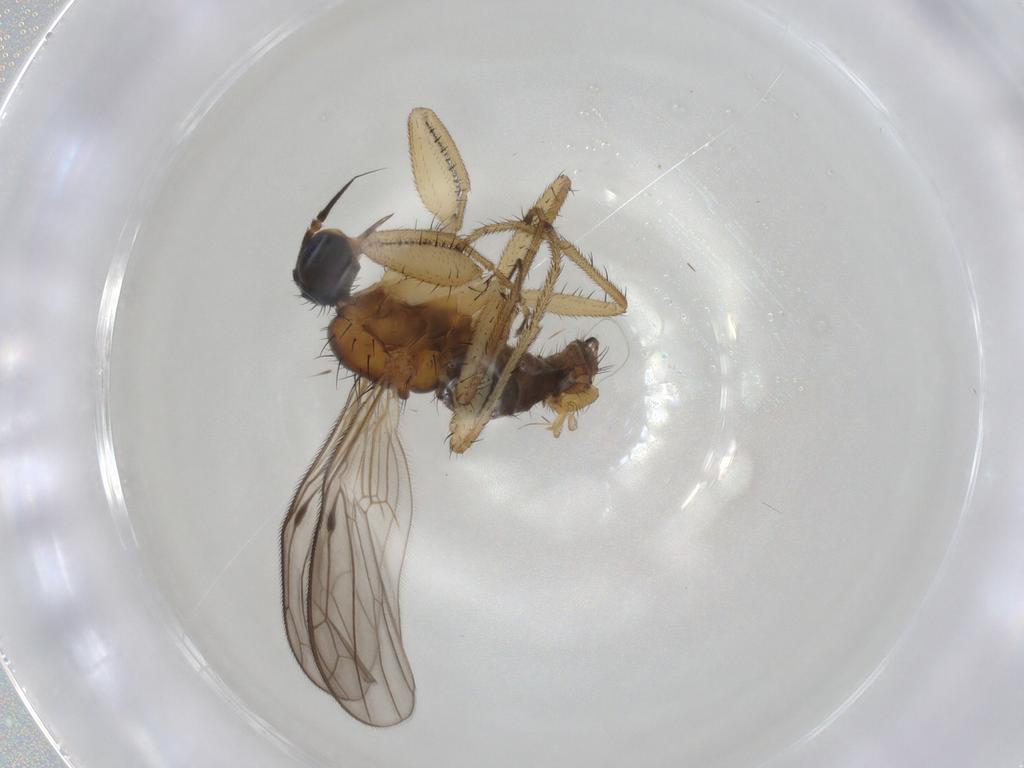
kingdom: Animalia
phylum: Arthropoda
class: Insecta
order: Diptera
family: Empididae
